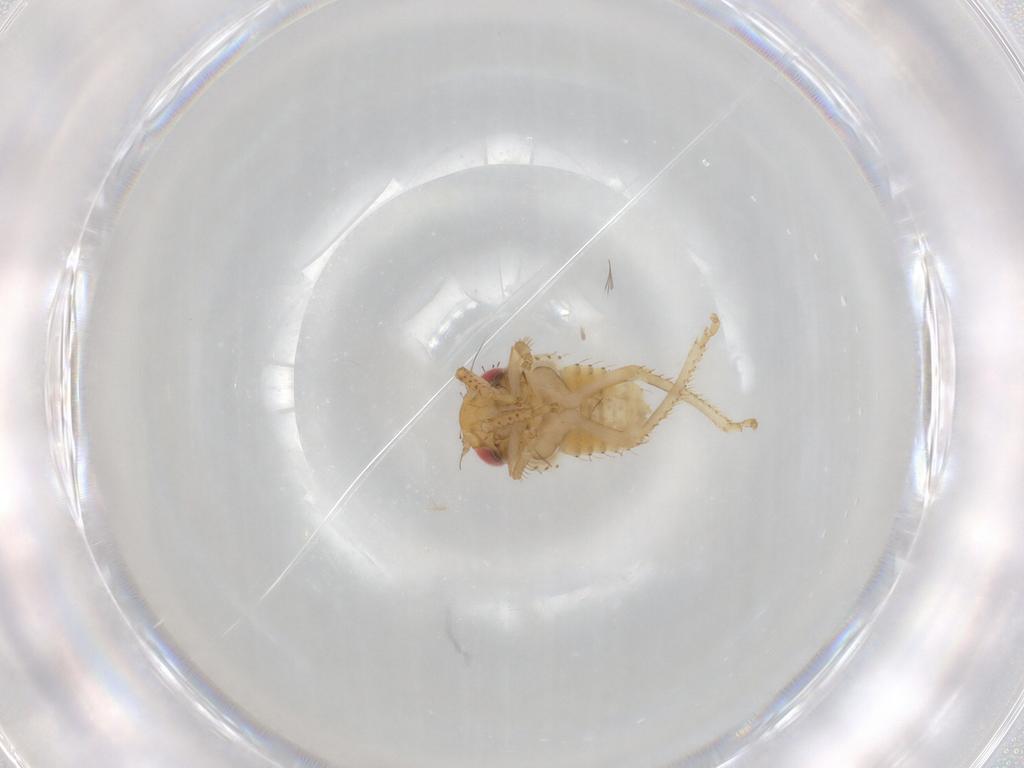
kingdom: Animalia
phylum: Arthropoda
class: Insecta
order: Hemiptera
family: Cicadellidae
